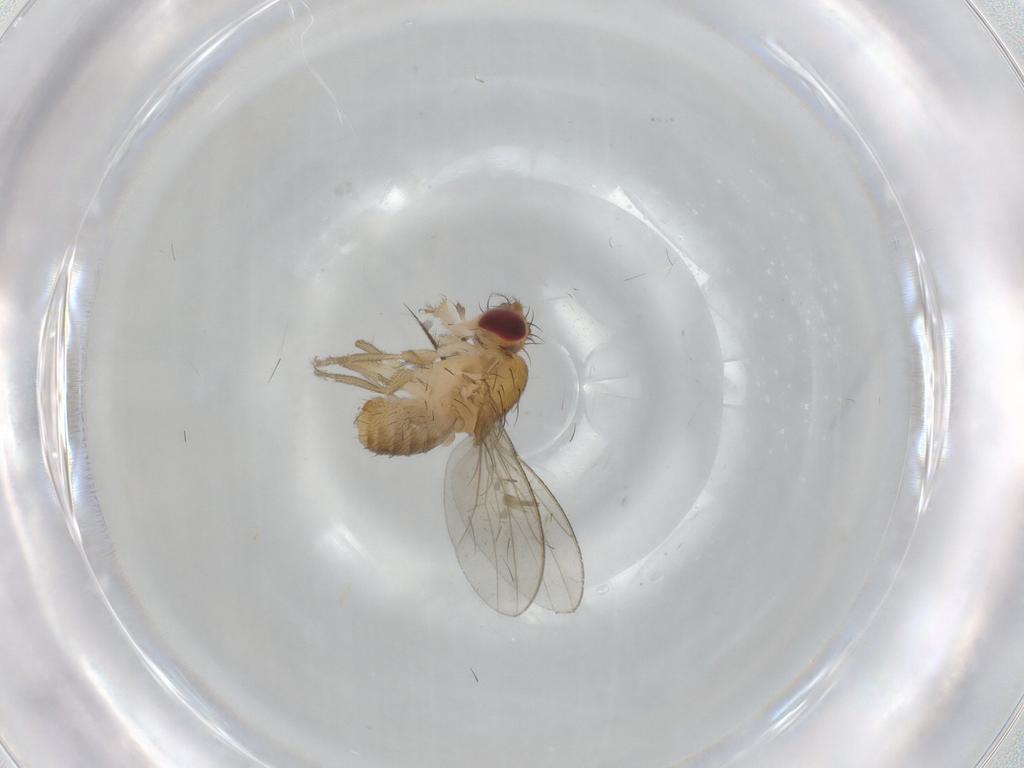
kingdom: Animalia
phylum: Arthropoda
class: Insecta
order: Diptera
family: Drosophilidae
